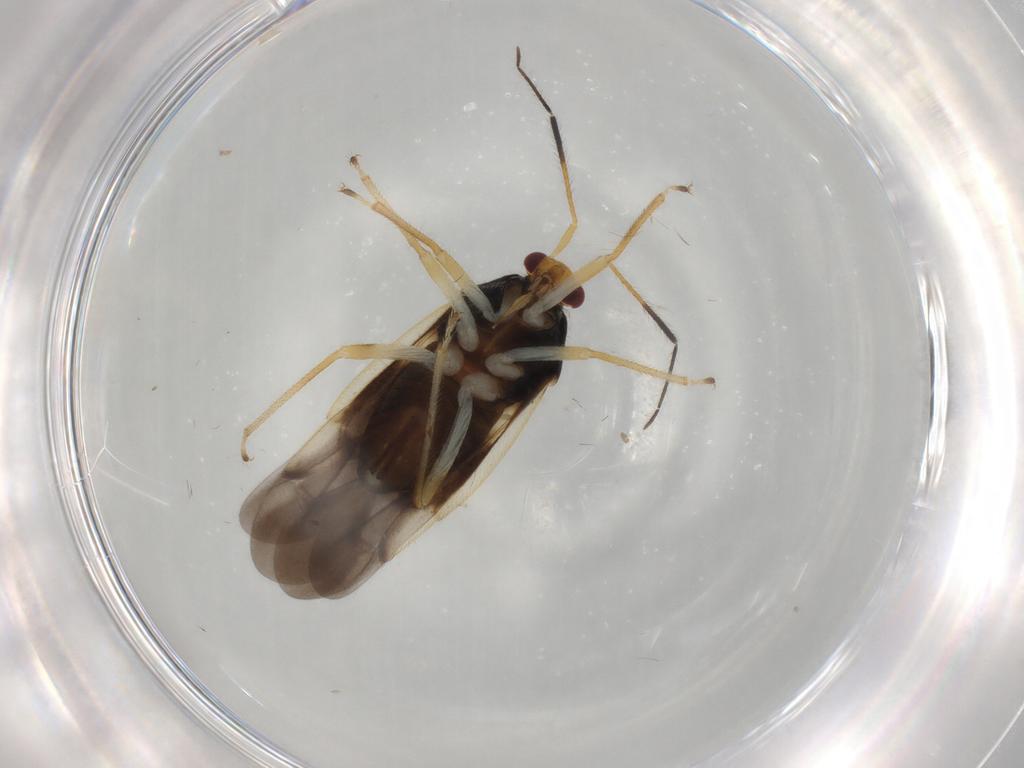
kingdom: Animalia
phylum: Arthropoda
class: Insecta
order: Hemiptera
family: Miridae
